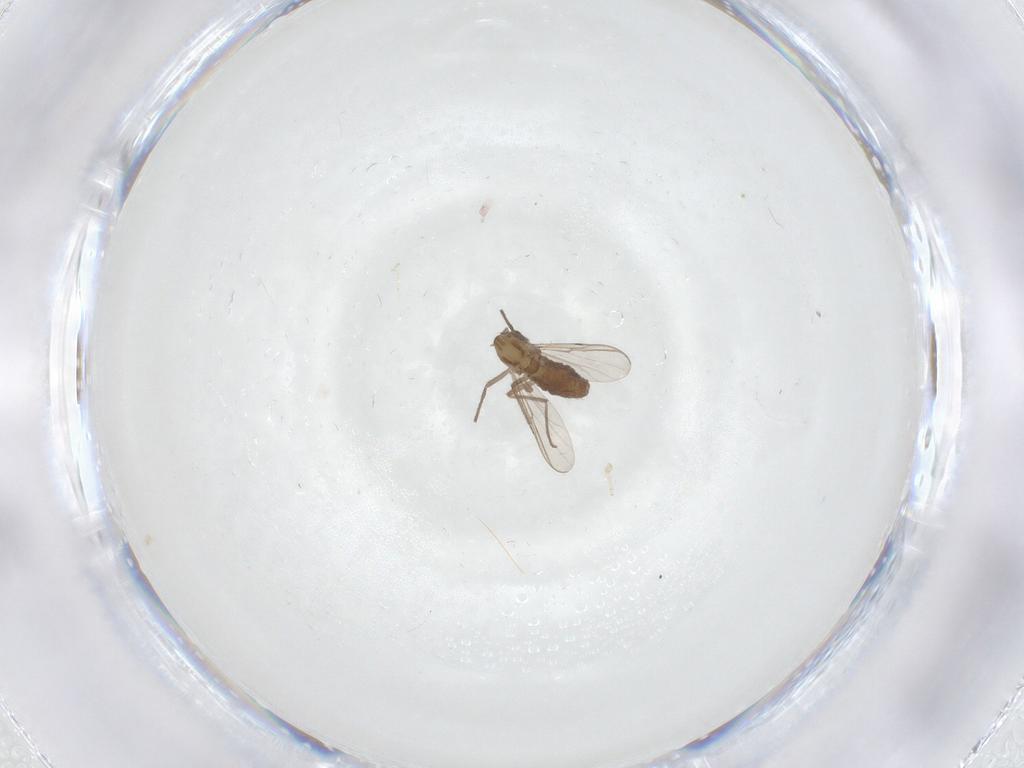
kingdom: Animalia
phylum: Arthropoda
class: Insecta
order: Diptera
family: Chironomidae
